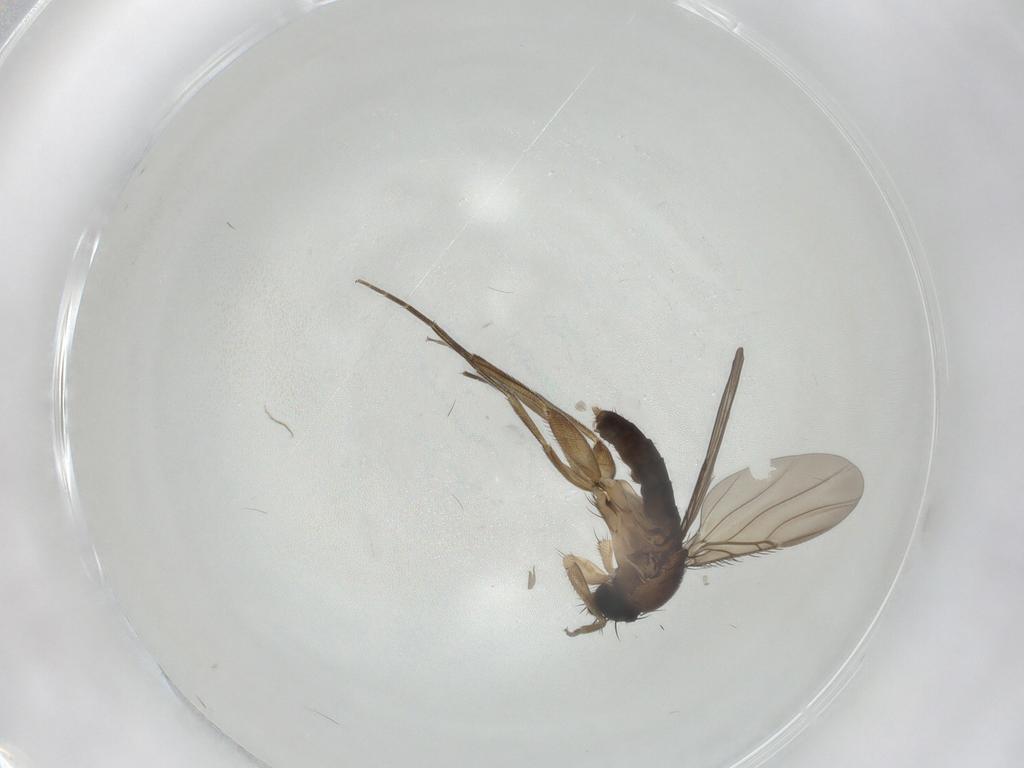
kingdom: Animalia
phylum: Arthropoda
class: Insecta
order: Diptera
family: Phoridae
